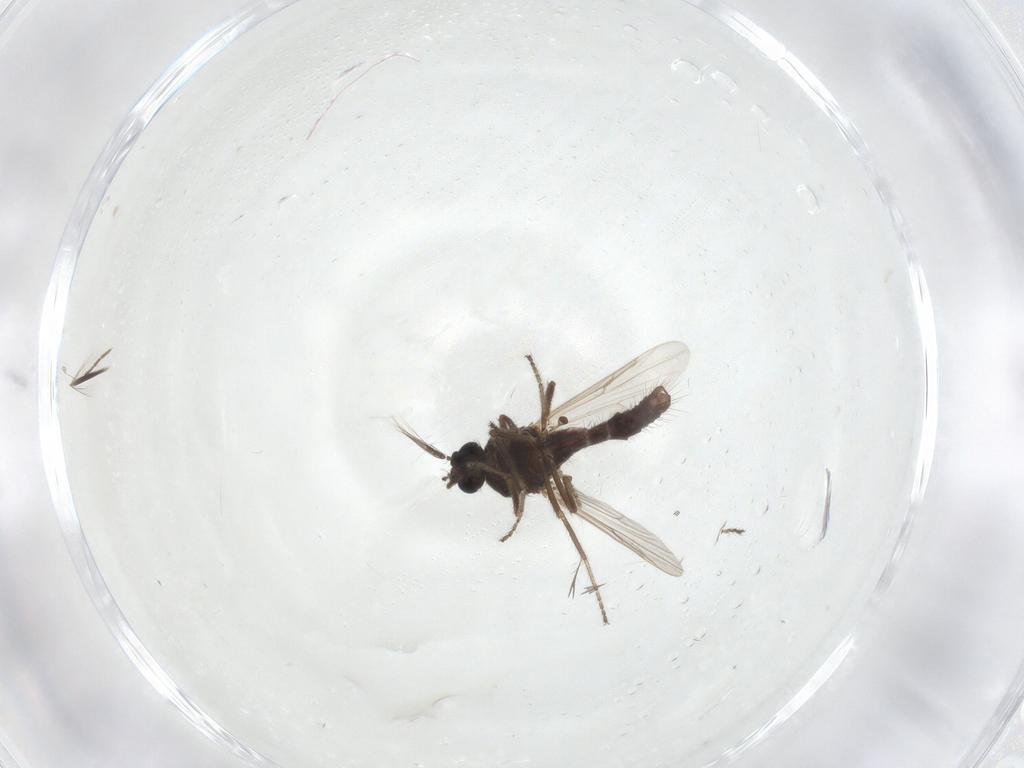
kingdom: Animalia
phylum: Arthropoda
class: Insecta
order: Diptera
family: Ceratopogonidae
